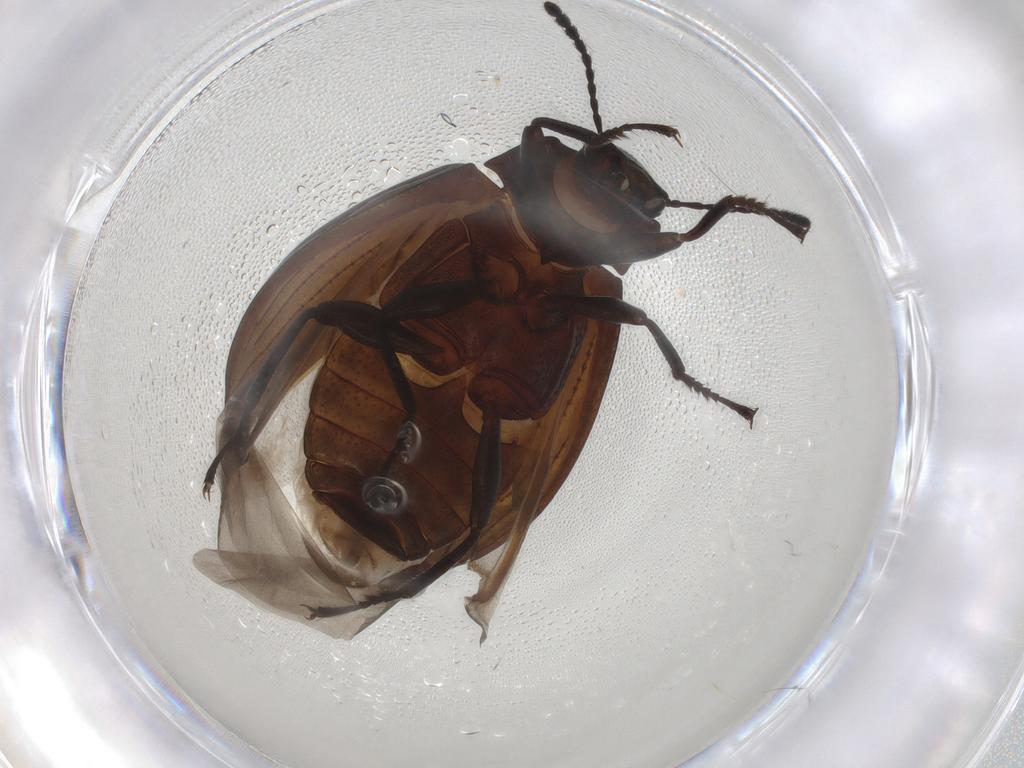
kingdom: Animalia
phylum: Arthropoda
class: Insecta
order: Coleoptera
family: Tenebrionidae
